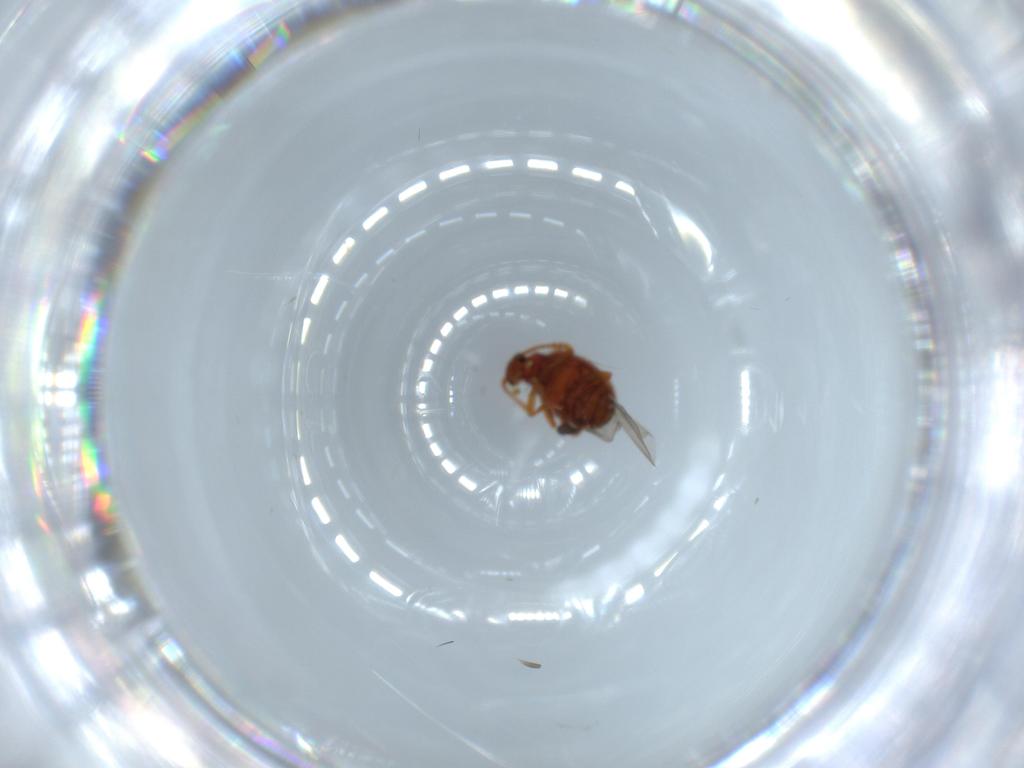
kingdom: Animalia
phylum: Arthropoda
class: Insecta
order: Coleoptera
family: Aderidae
